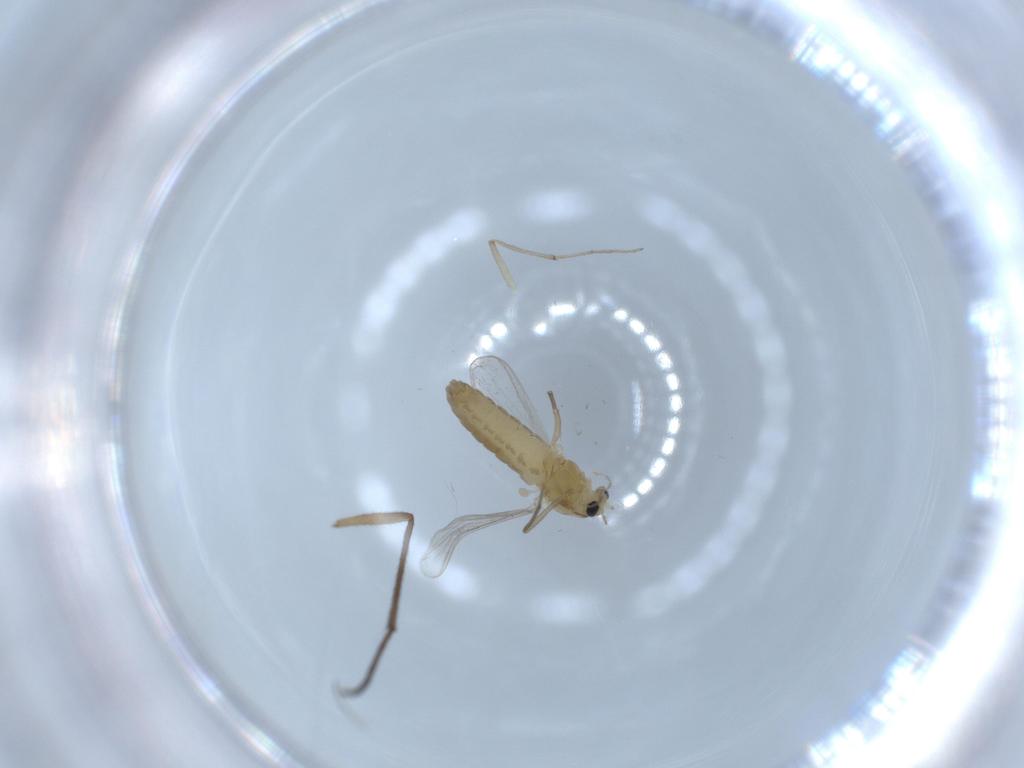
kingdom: Animalia
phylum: Arthropoda
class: Insecta
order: Diptera
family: Chironomidae
